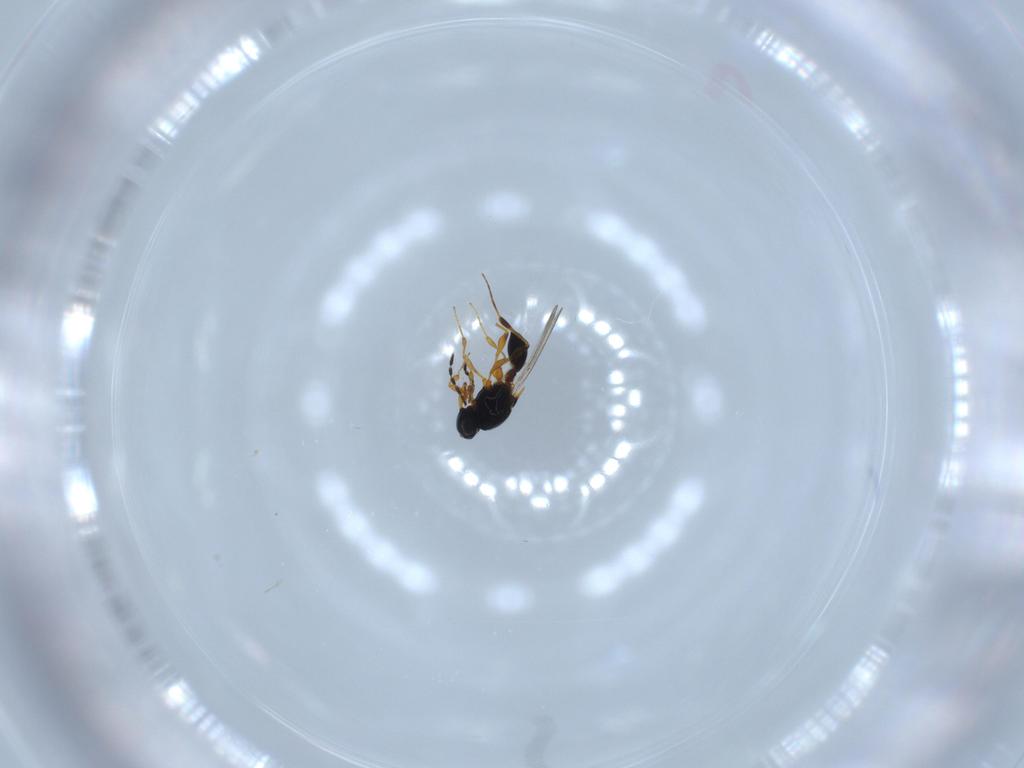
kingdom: Animalia
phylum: Arthropoda
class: Insecta
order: Hymenoptera
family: Platygastridae
